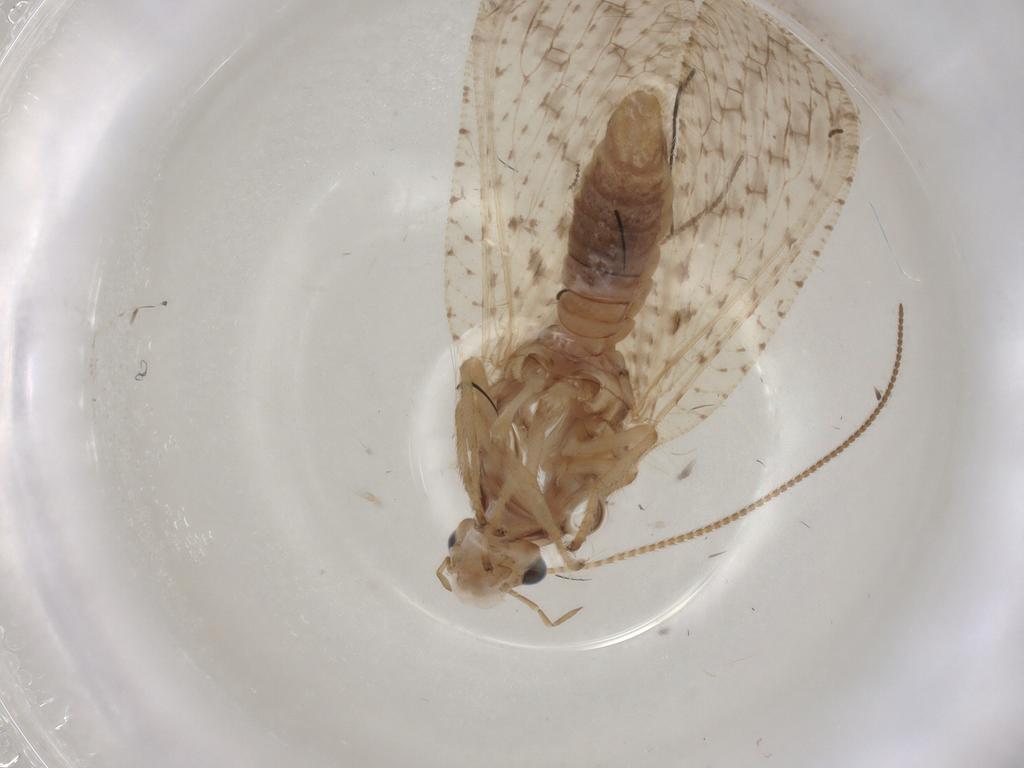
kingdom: Animalia
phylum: Arthropoda
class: Insecta
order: Neuroptera
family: Hemerobiidae
